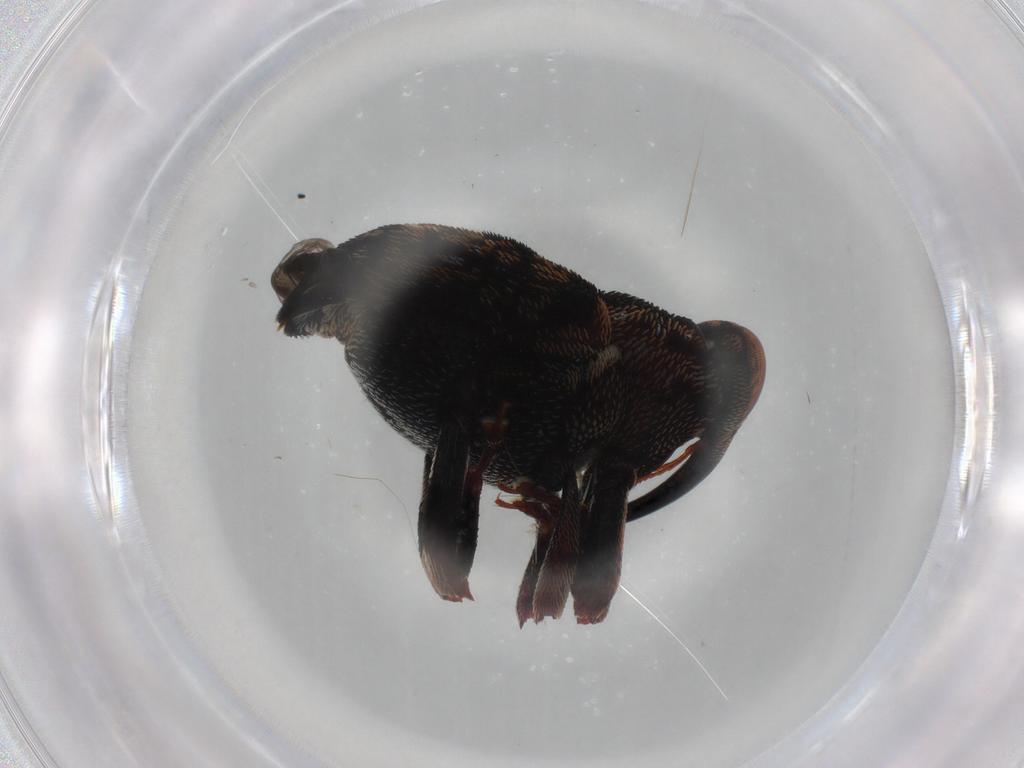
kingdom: Animalia
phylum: Arthropoda
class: Insecta
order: Coleoptera
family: Curculionidae
